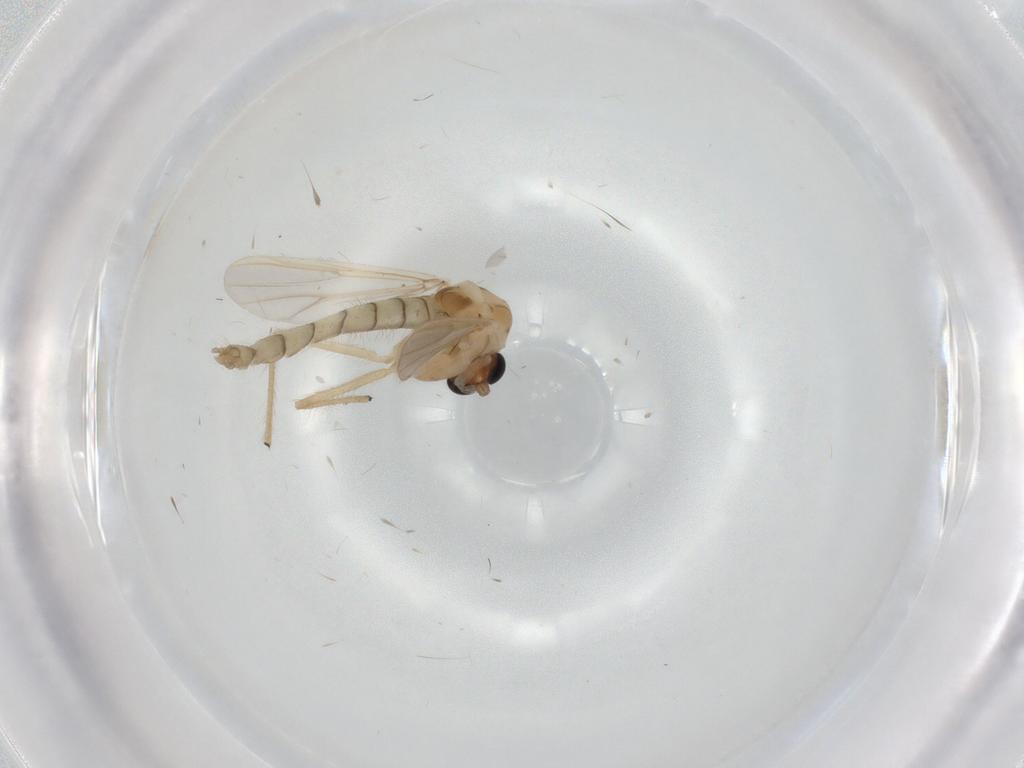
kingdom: Animalia
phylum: Arthropoda
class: Insecta
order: Diptera
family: Chironomidae
